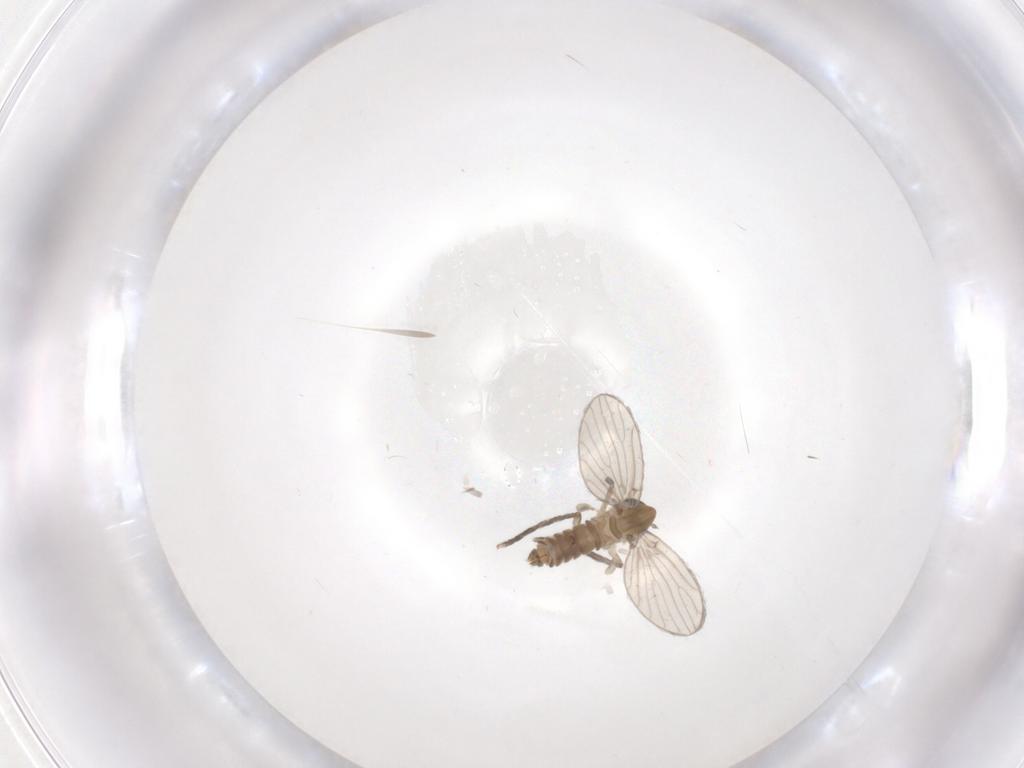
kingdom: Animalia
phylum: Arthropoda
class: Insecta
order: Diptera
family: Psychodidae
